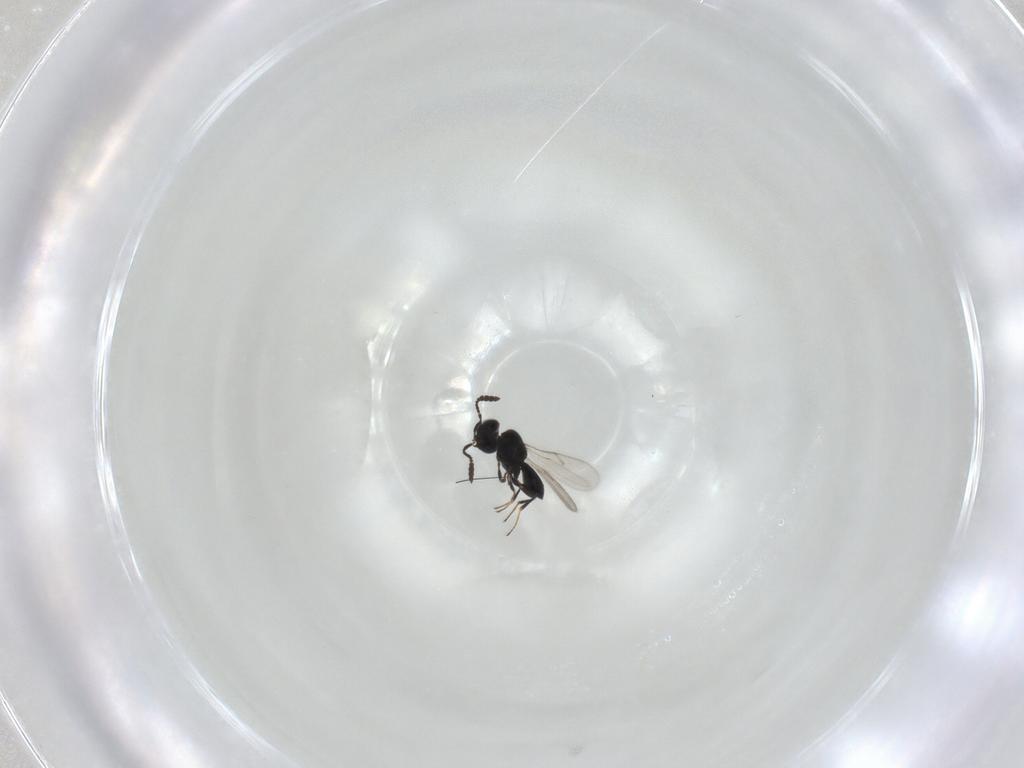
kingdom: Animalia
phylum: Arthropoda
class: Insecta
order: Hymenoptera
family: Scelionidae
